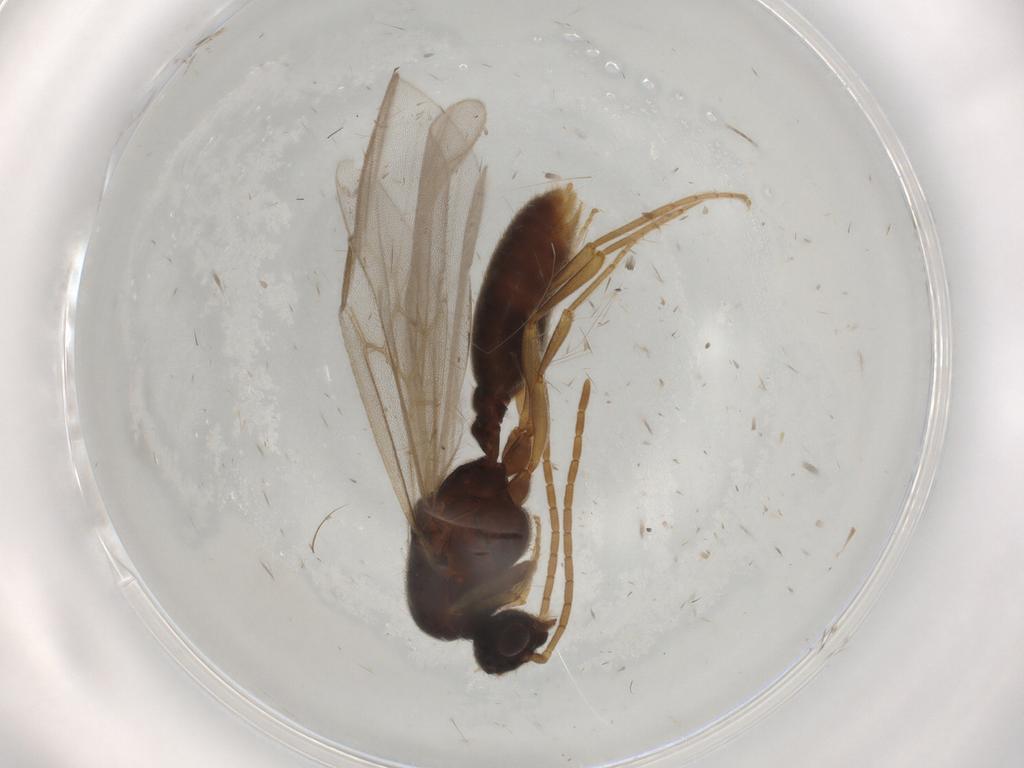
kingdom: Animalia
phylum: Arthropoda
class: Insecta
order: Hymenoptera
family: Formicidae
